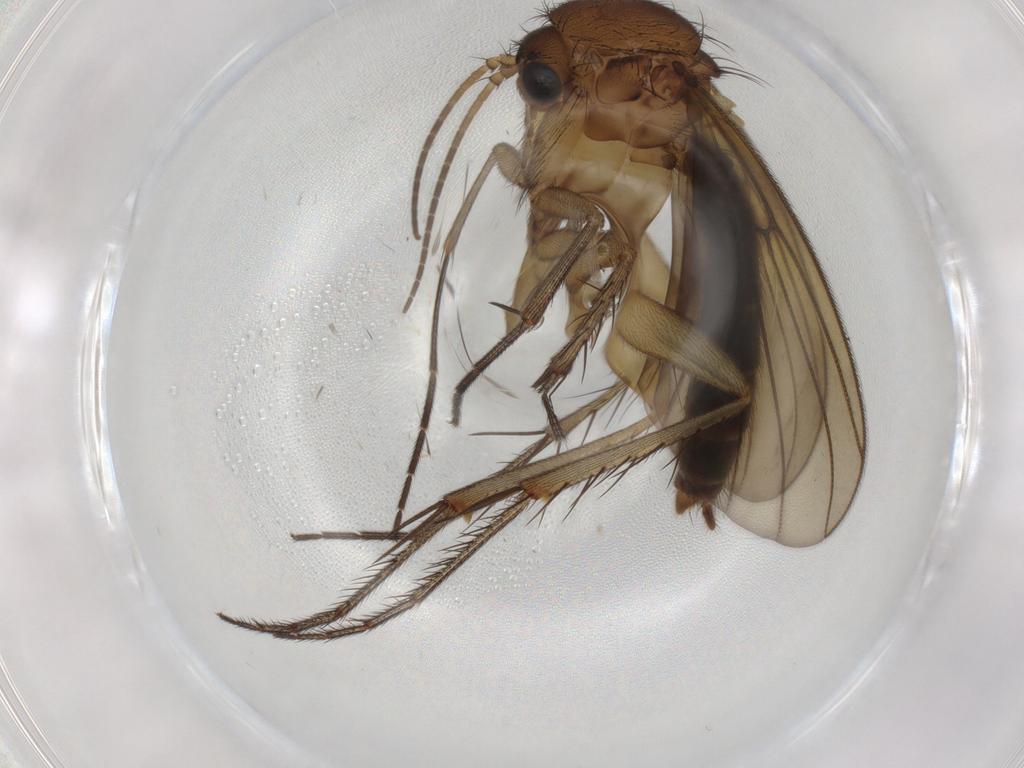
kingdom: Animalia
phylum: Arthropoda
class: Insecta
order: Diptera
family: Mycetophilidae
